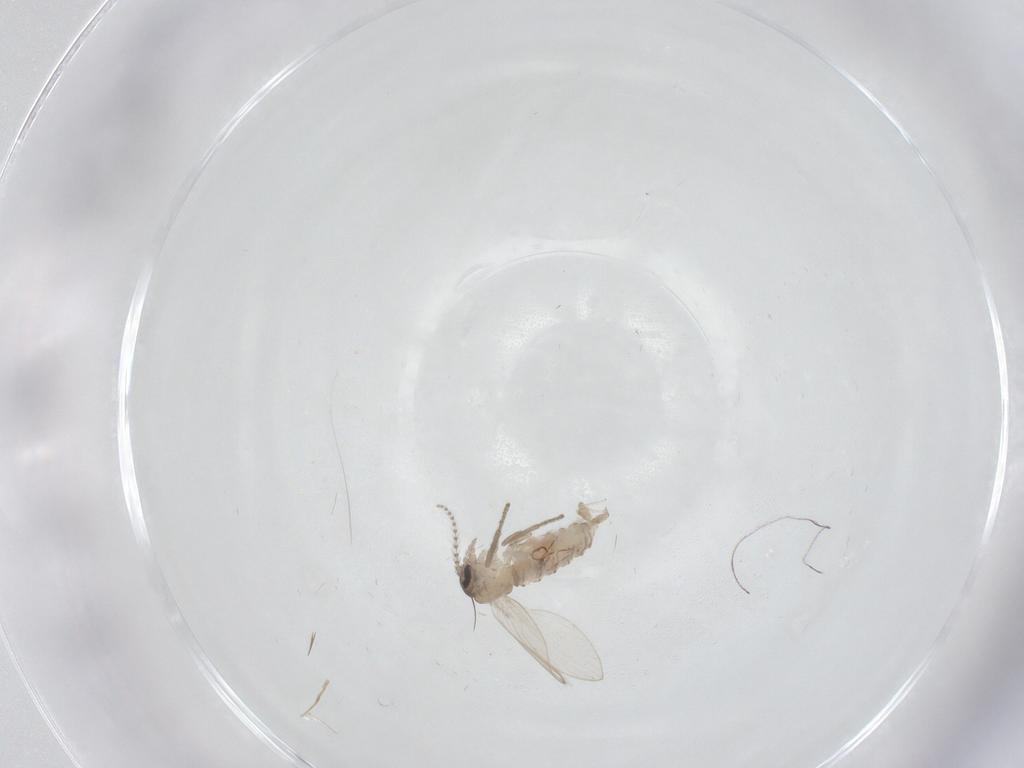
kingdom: Animalia
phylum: Arthropoda
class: Insecta
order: Diptera
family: Psychodidae
